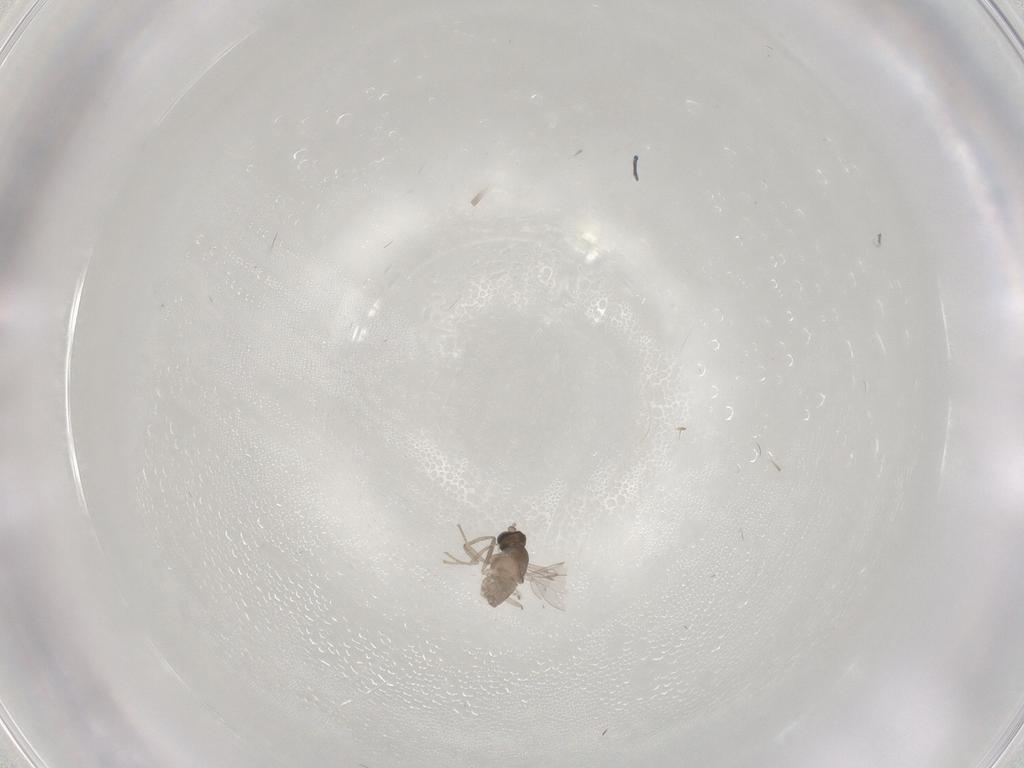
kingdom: Animalia
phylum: Arthropoda
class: Insecta
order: Diptera
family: Cecidomyiidae
